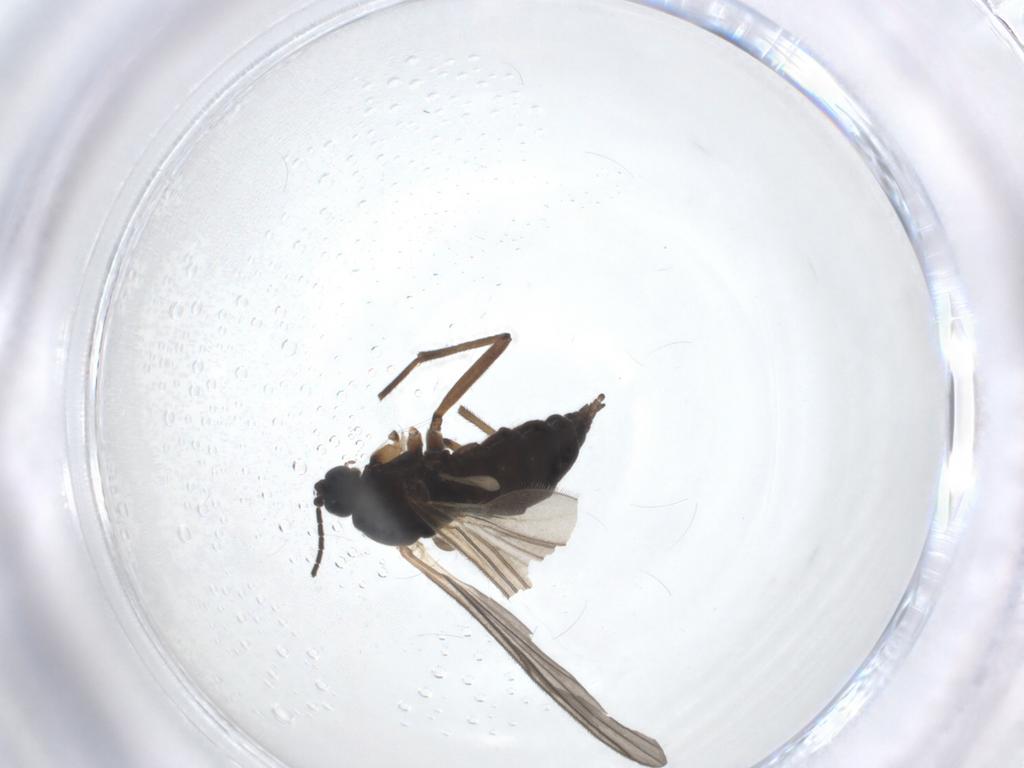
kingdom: Animalia
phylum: Arthropoda
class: Insecta
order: Diptera
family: Sciaridae
